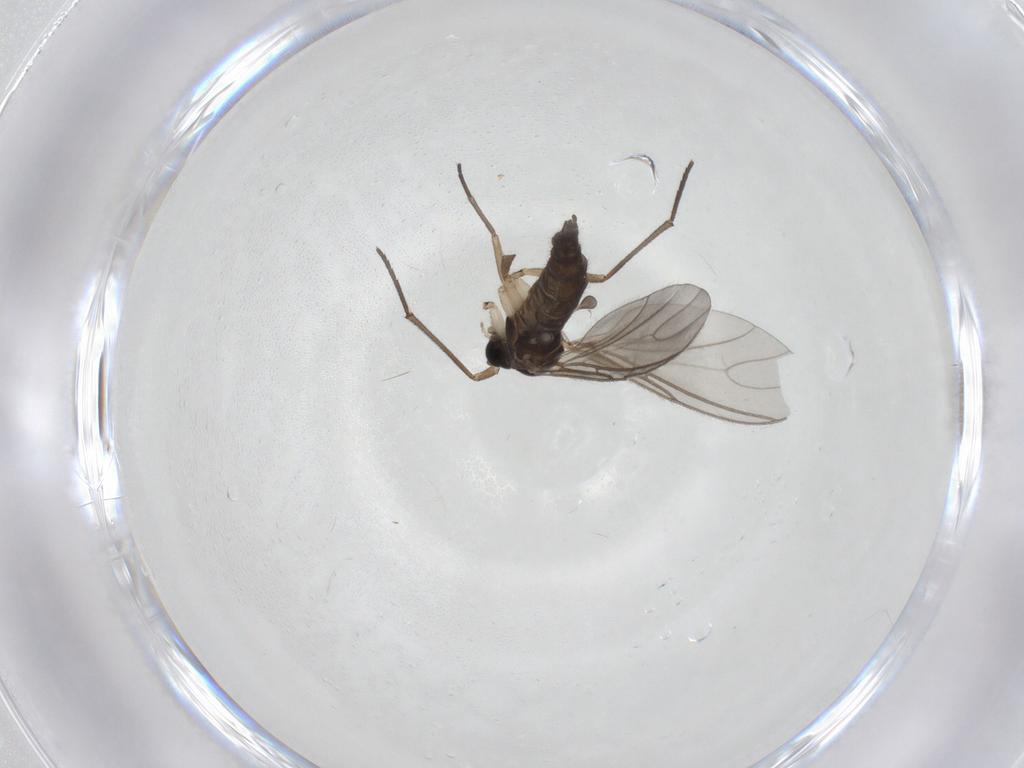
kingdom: Animalia
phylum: Arthropoda
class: Insecta
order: Diptera
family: Sciaridae
